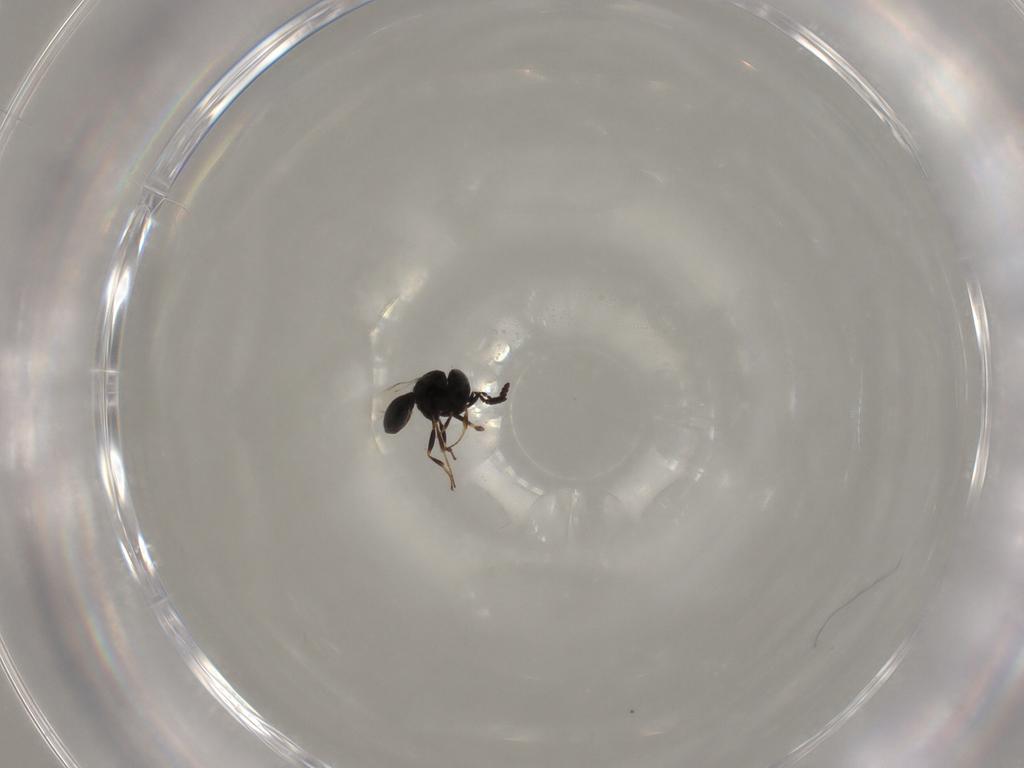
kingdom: Animalia
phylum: Arthropoda
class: Insecta
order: Hymenoptera
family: Scelionidae
